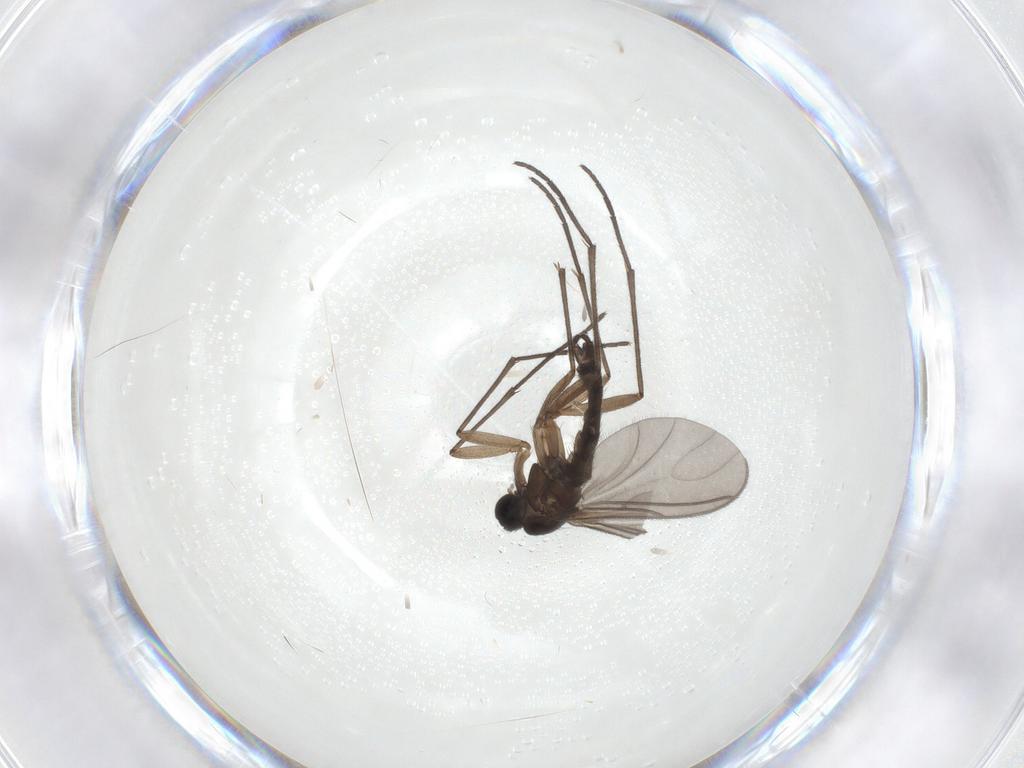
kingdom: Animalia
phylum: Arthropoda
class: Insecta
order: Diptera
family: Sciaridae
